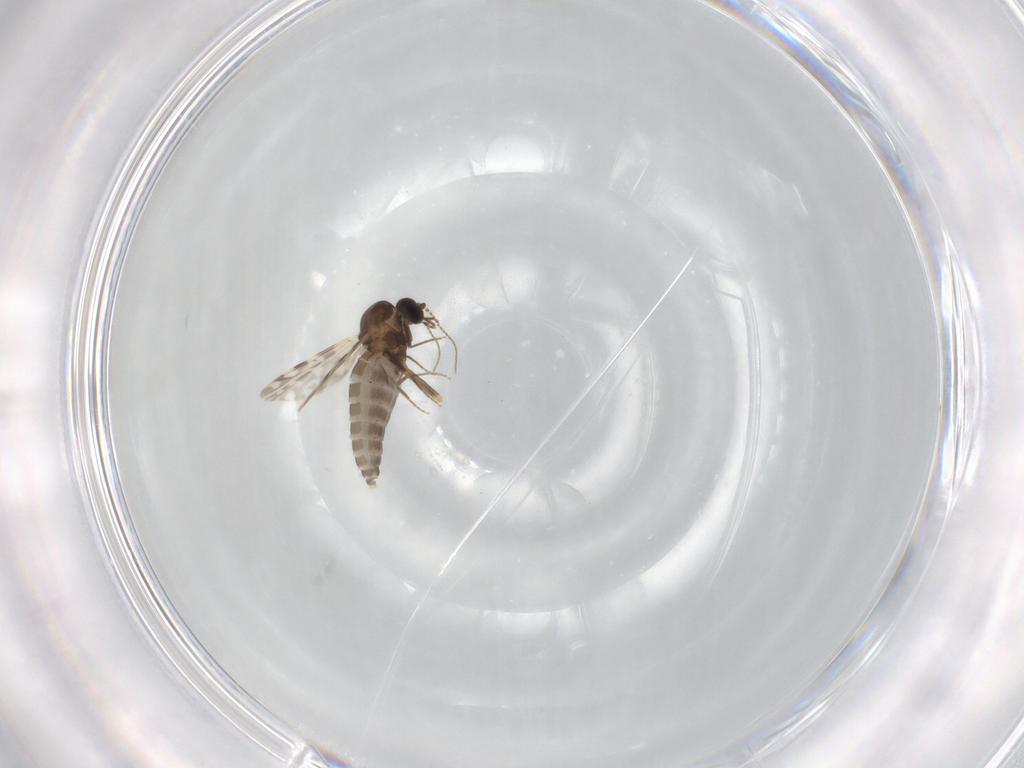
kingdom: Animalia
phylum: Arthropoda
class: Insecta
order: Diptera
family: Ceratopogonidae
